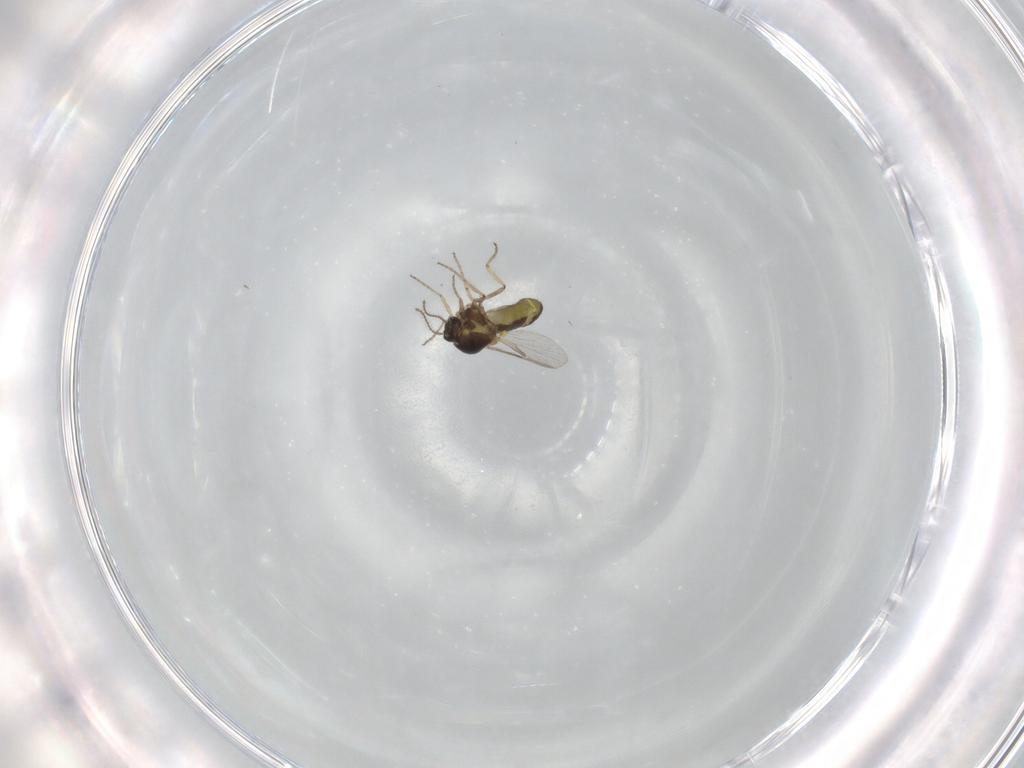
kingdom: Animalia
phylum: Arthropoda
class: Insecta
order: Diptera
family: Ceratopogonidae
